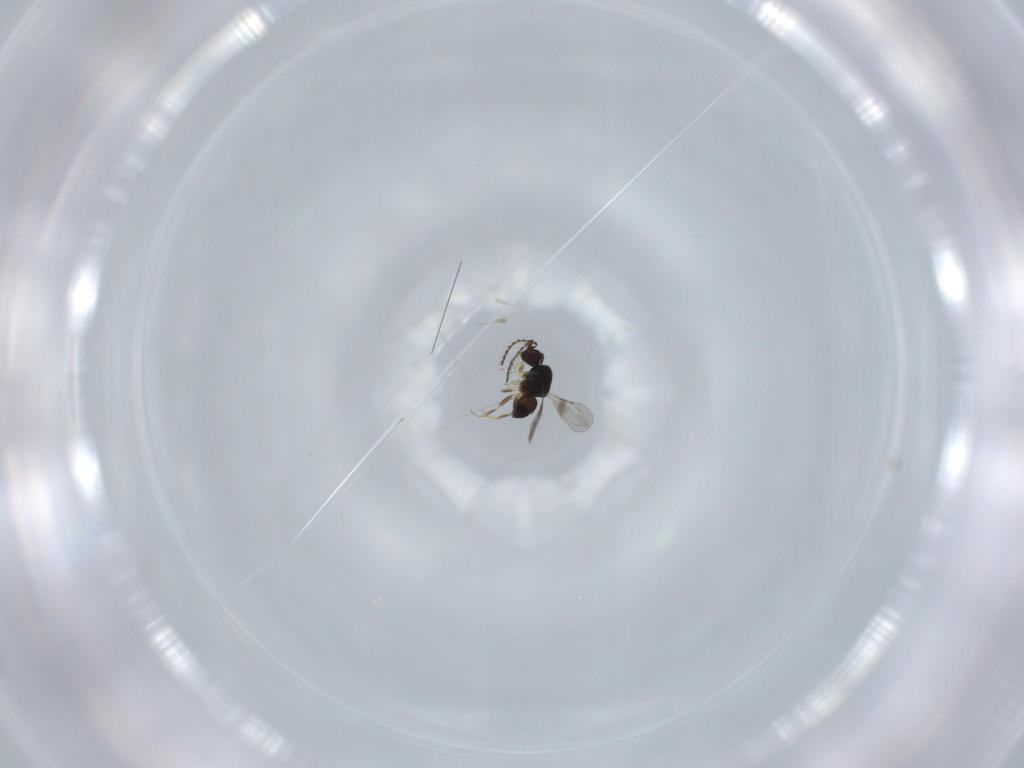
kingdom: Animalia
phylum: Arthropoda
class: Insecta
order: Hymenoptera
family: Ceraphronidae
